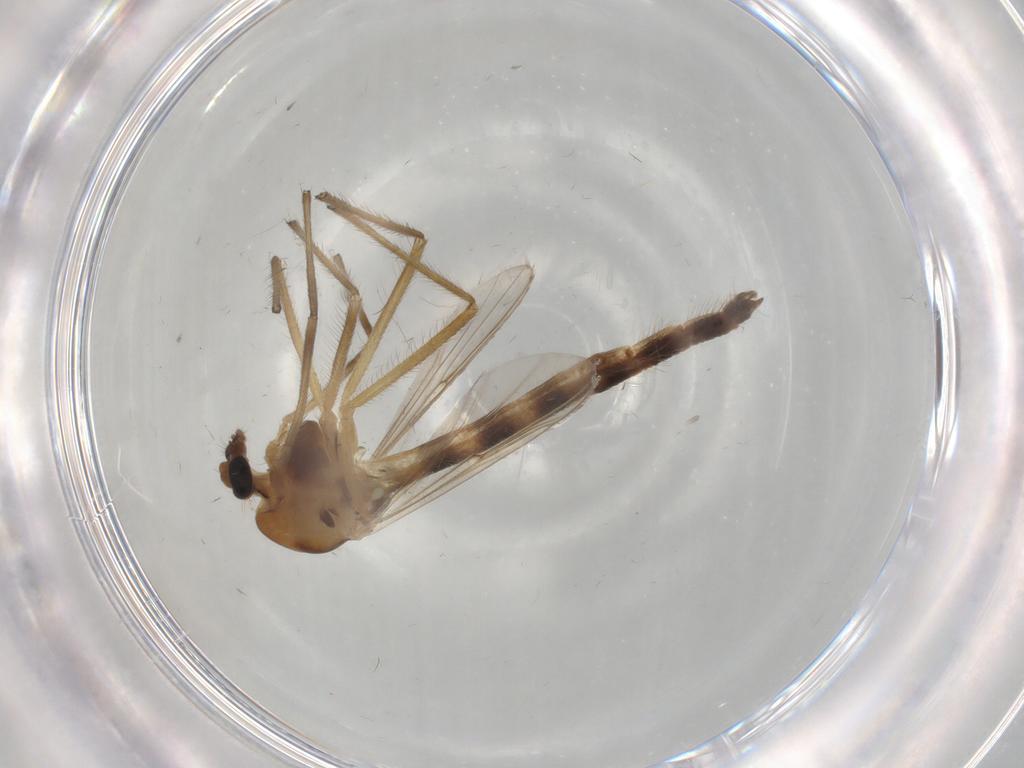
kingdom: Animalia
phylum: Arthropoda
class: Insecta
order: Diptera
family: Chironomidae
